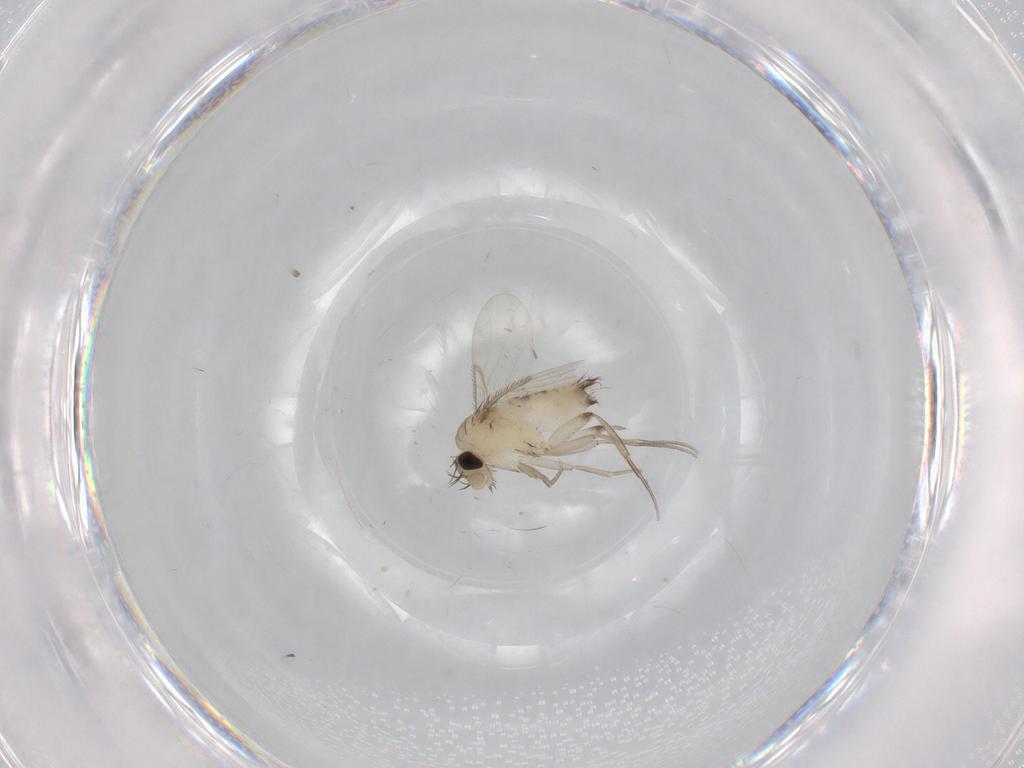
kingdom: Animalia
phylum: Arthropoda
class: Insecta
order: Diptera
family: Phoridae
